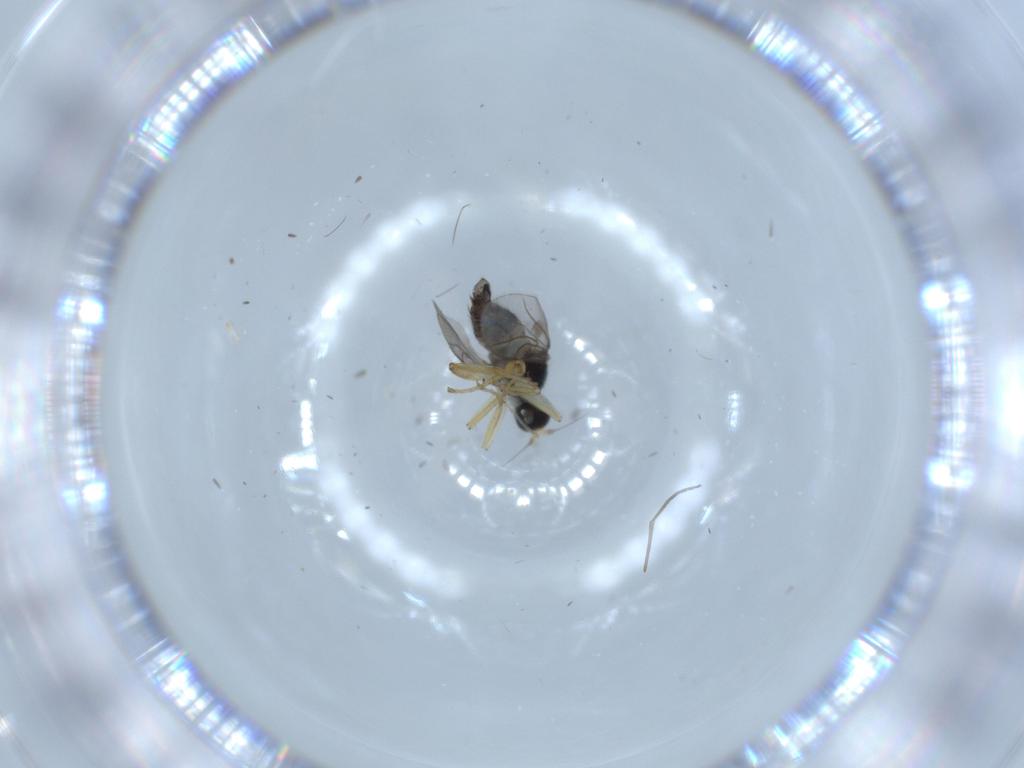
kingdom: Animalia
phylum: Arthropoda
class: Insecta
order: Diptera
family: Hybotidae
